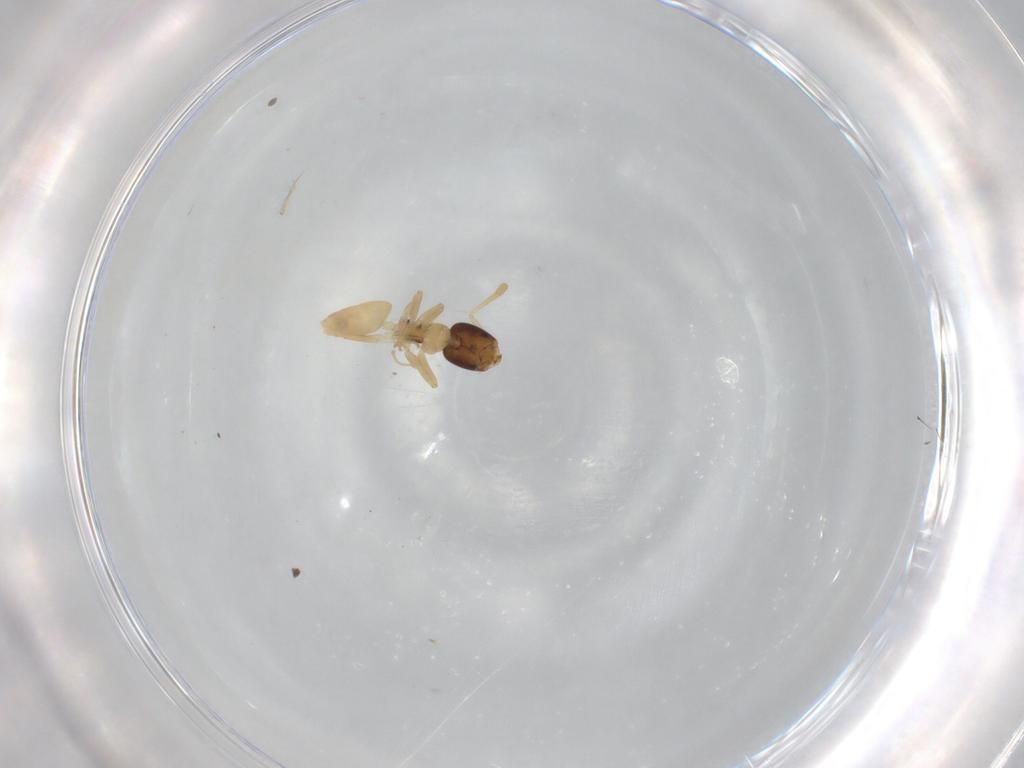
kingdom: Animalia
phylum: Arthropoda
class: Insecta
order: Hymenoptera
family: Formicidae
